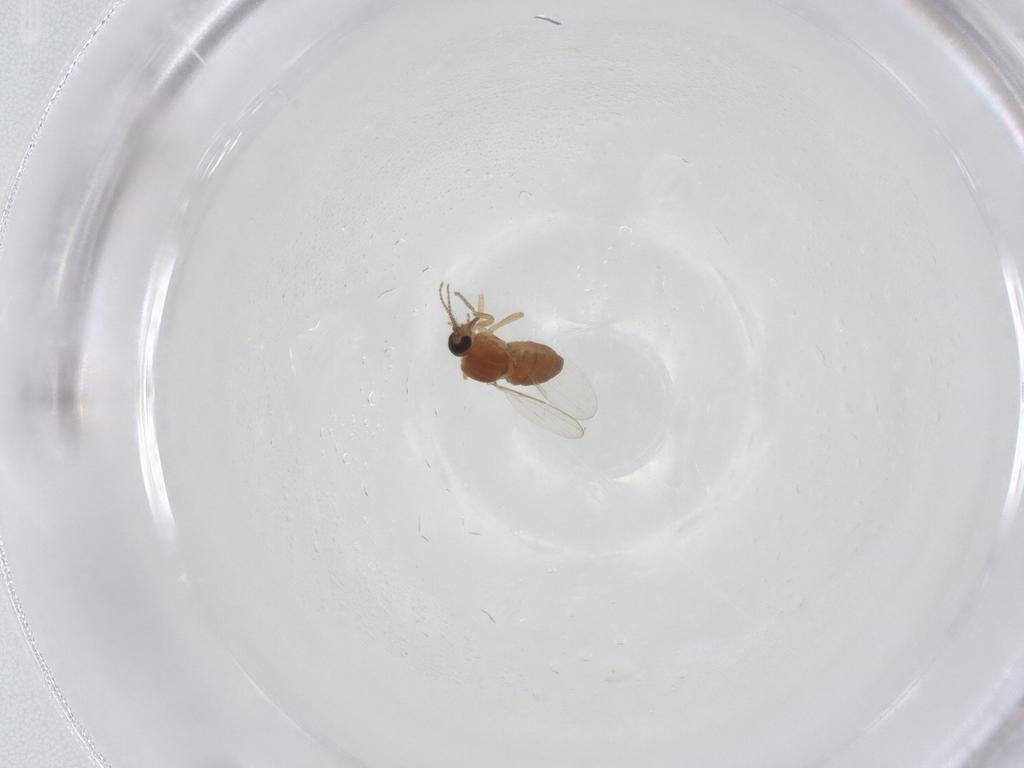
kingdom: Animalia
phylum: Arthropoda
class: Insecta
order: Diptera
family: Ceratopogonidae
